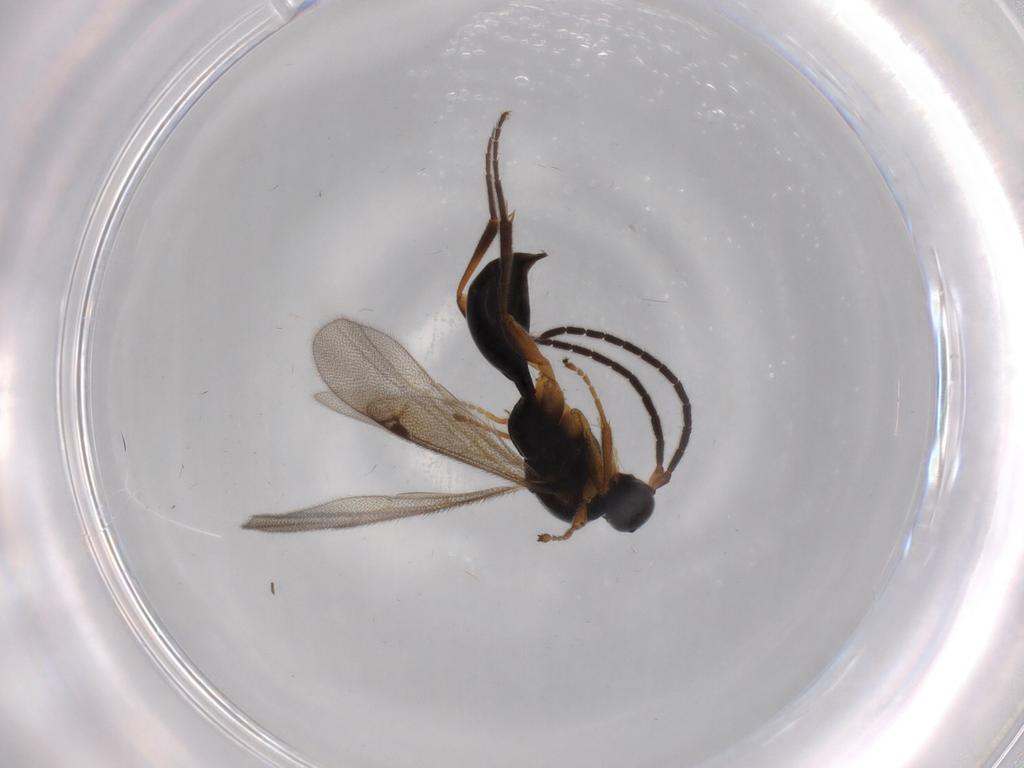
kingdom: Animalia
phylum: Arthropoda
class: Insecta
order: Hymenoptera
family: Proctotrupidae
